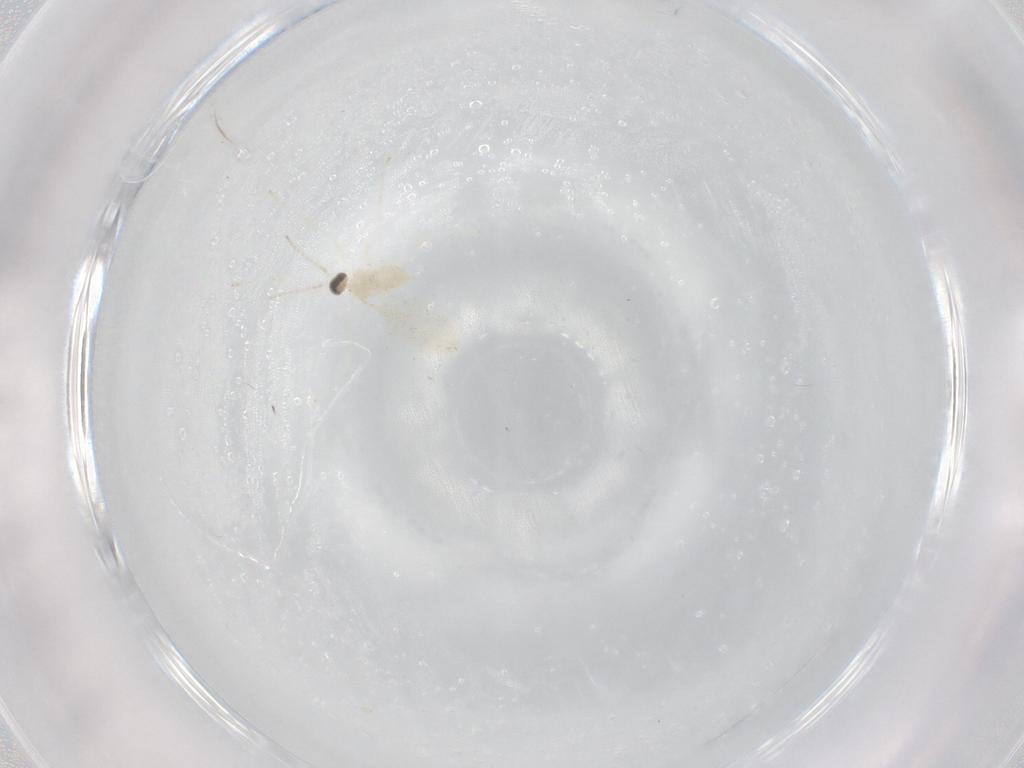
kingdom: Animalia
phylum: Arthropoda
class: Insecta
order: Diptera
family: Cecidomyiidae
